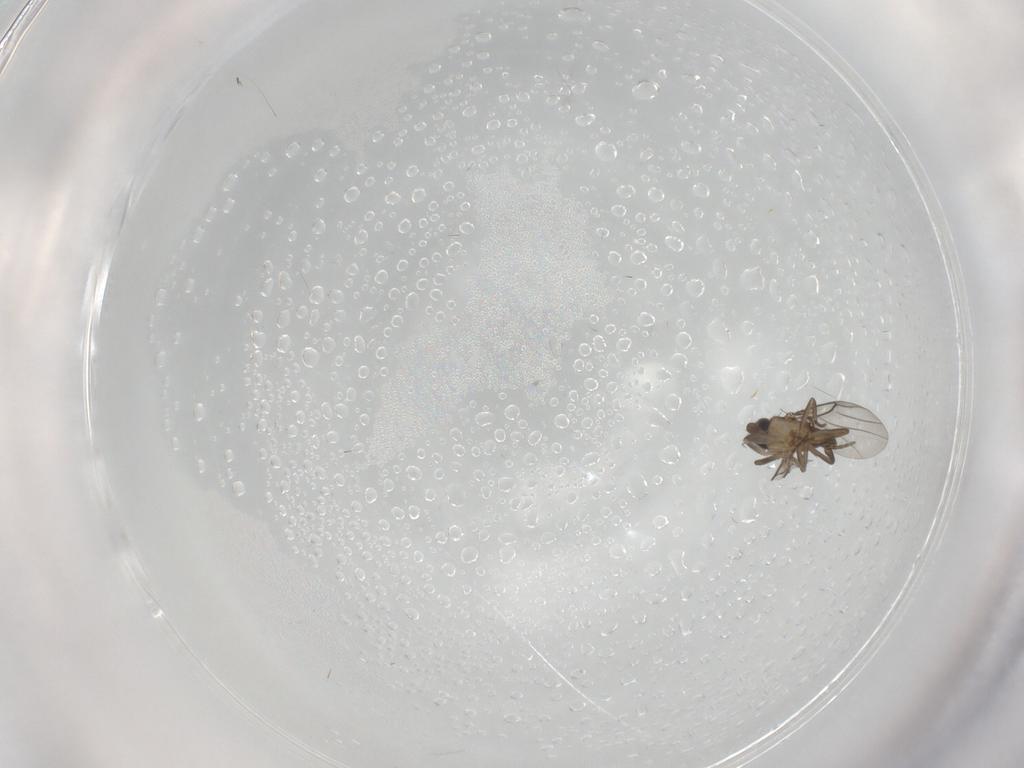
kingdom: Animalia
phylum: Arthropoda
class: Insecta
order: Diptera
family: Phoridae
